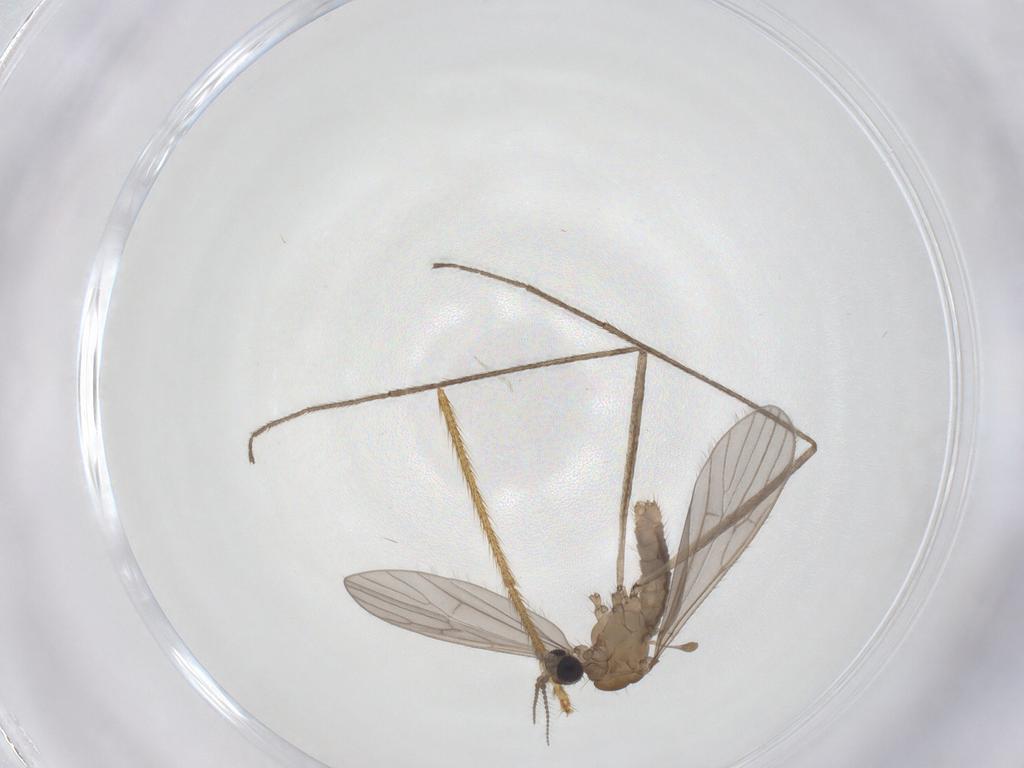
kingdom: Animalia
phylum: Arthropoda
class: Insecta
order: Diptera
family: Limoniidae
